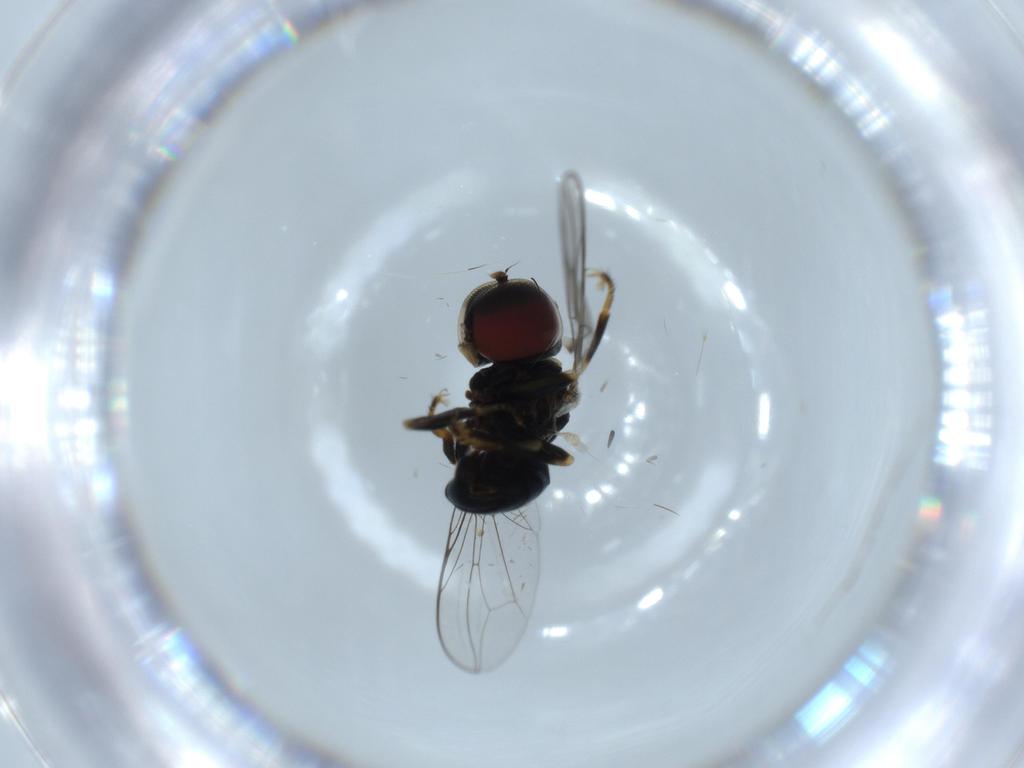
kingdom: Animalia
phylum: Arthropoda
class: Insecta
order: Diptera
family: Pipunculidae
